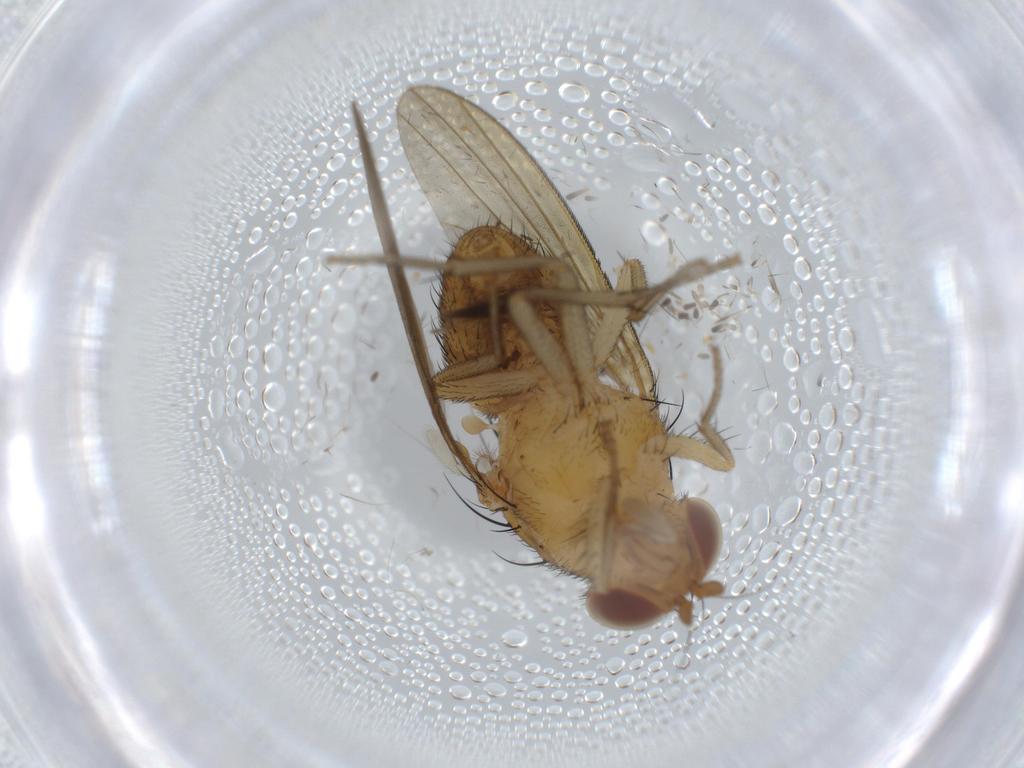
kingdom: Animalia
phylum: Arthropoda
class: Insecta
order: Diptera
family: Ceratopogonidae
